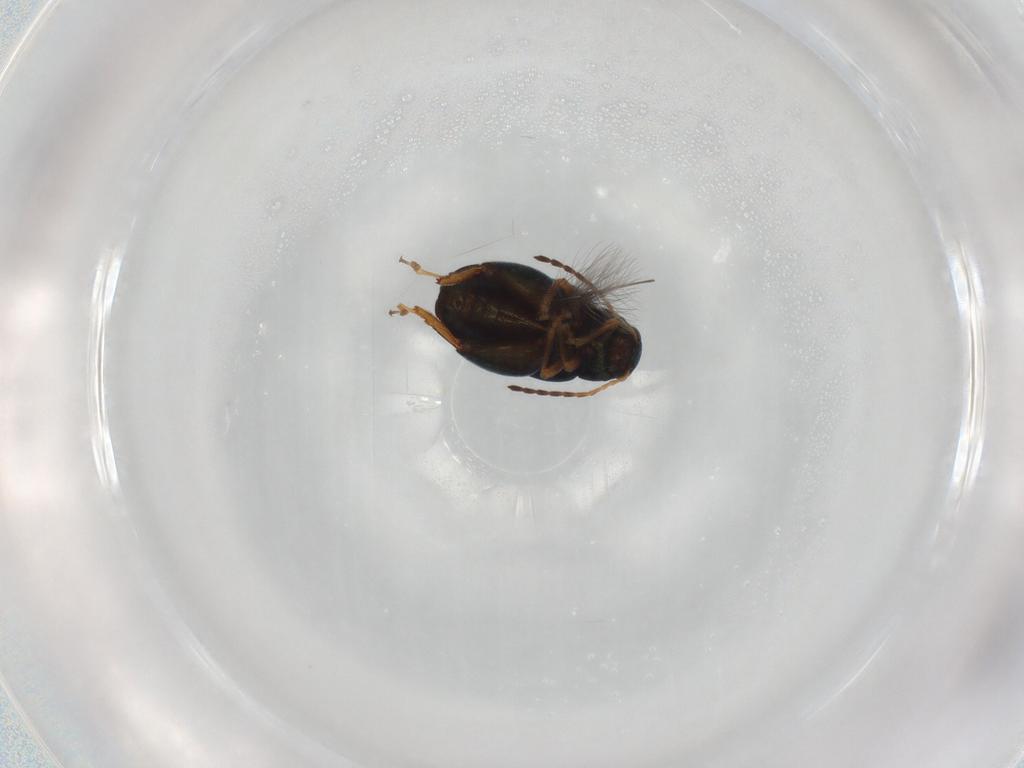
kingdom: Animalia
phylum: Arthropoda
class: Insecta
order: Coleoptera
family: Chrysomelidae
